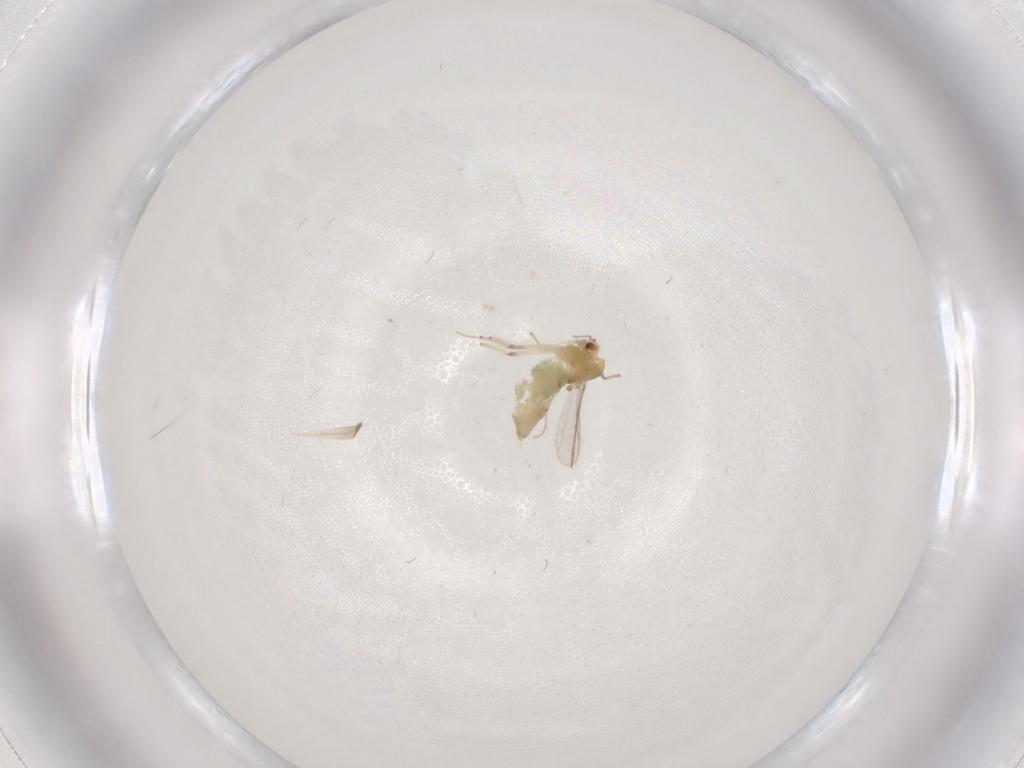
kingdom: Animalia
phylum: Arthropoda
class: Insecta
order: Diptera
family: Chironomidae
